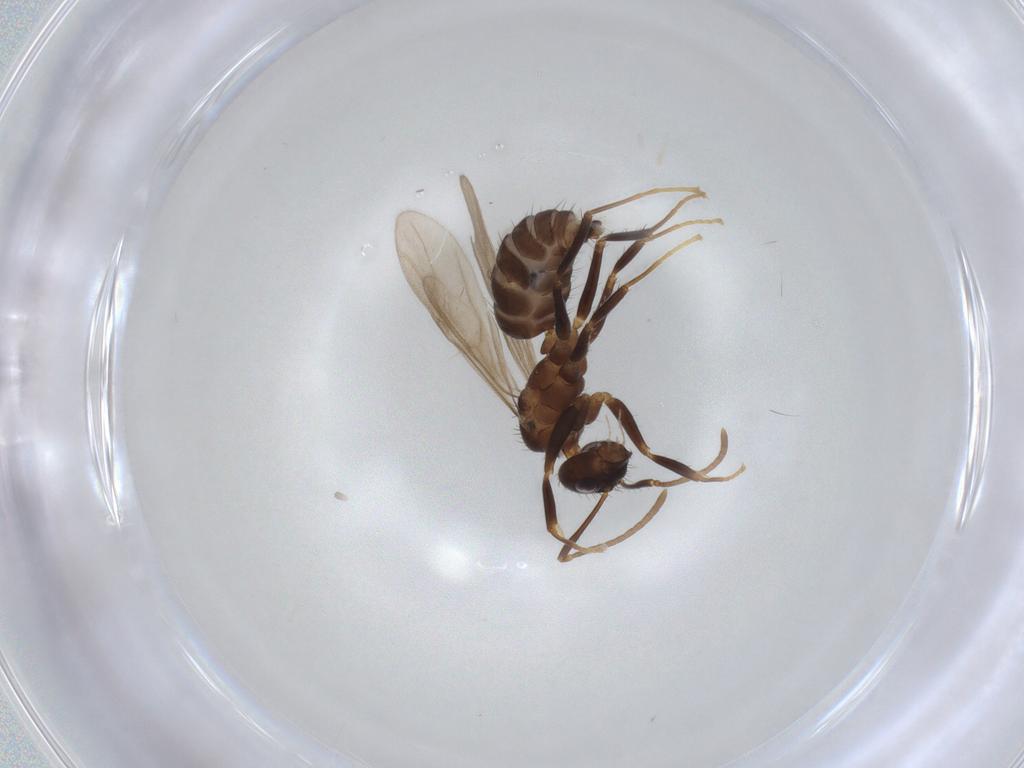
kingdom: Animalia
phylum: Arthropoda
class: Insecta
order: Hymenoptera
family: Formicidae
